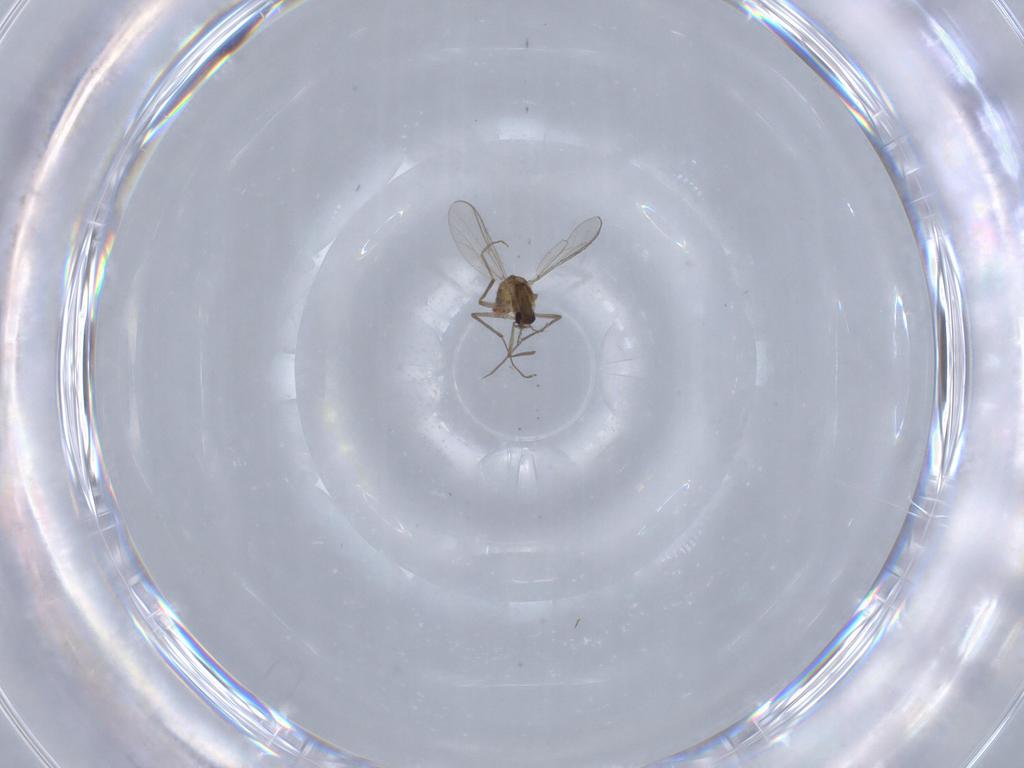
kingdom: Animalia
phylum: Arthropoda
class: Insecta
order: Diptera
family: Chironomidae
